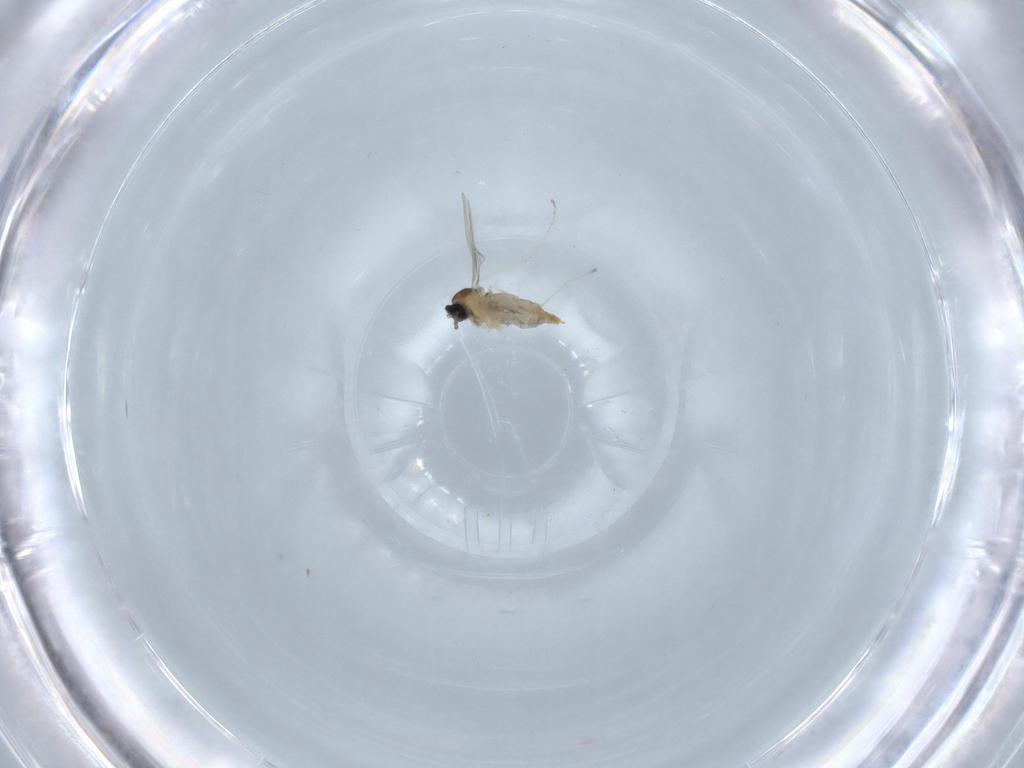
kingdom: Animalia
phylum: Arthropoda
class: Insecta
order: Diptera
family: Cecidomyiidae
